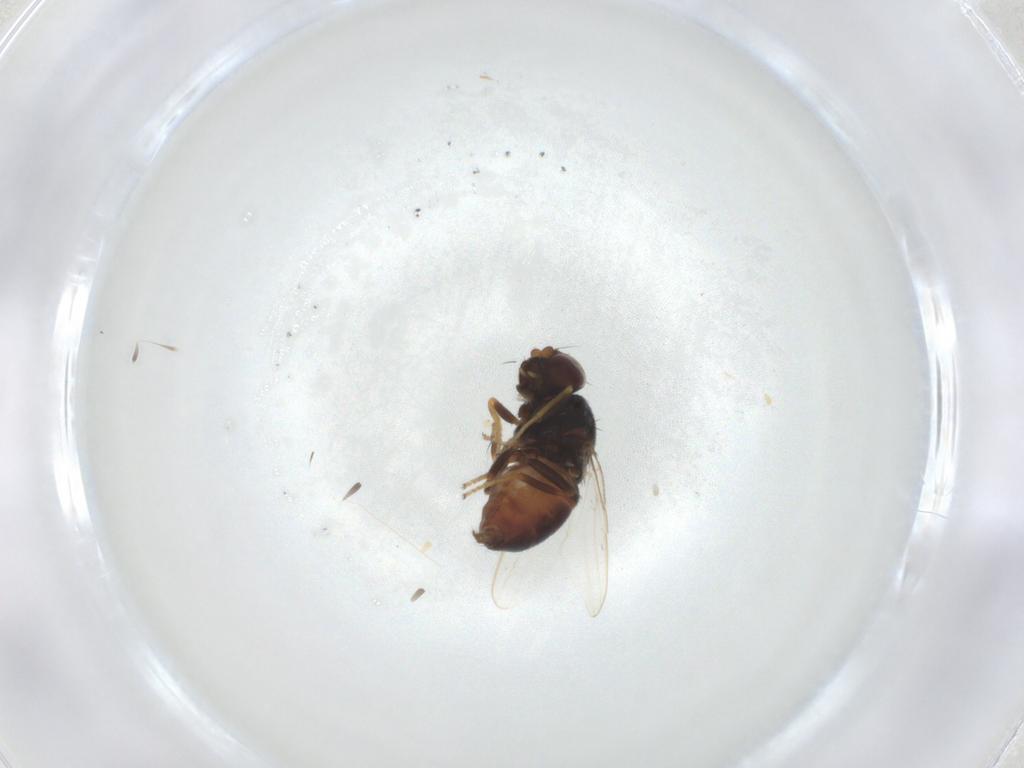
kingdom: Animalia
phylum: Arthropoda
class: Insecta
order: Diptera
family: Chloropidae
